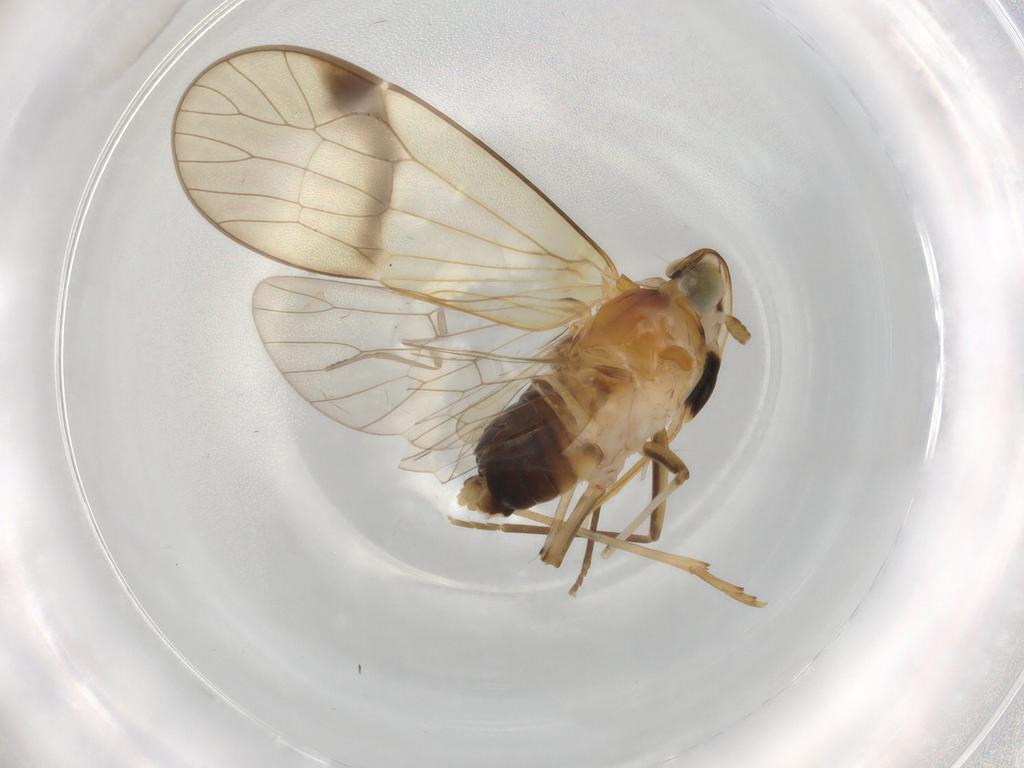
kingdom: Animalia
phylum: Arthropoda
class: Insecta
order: Hemiptera
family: Kinnaridae
